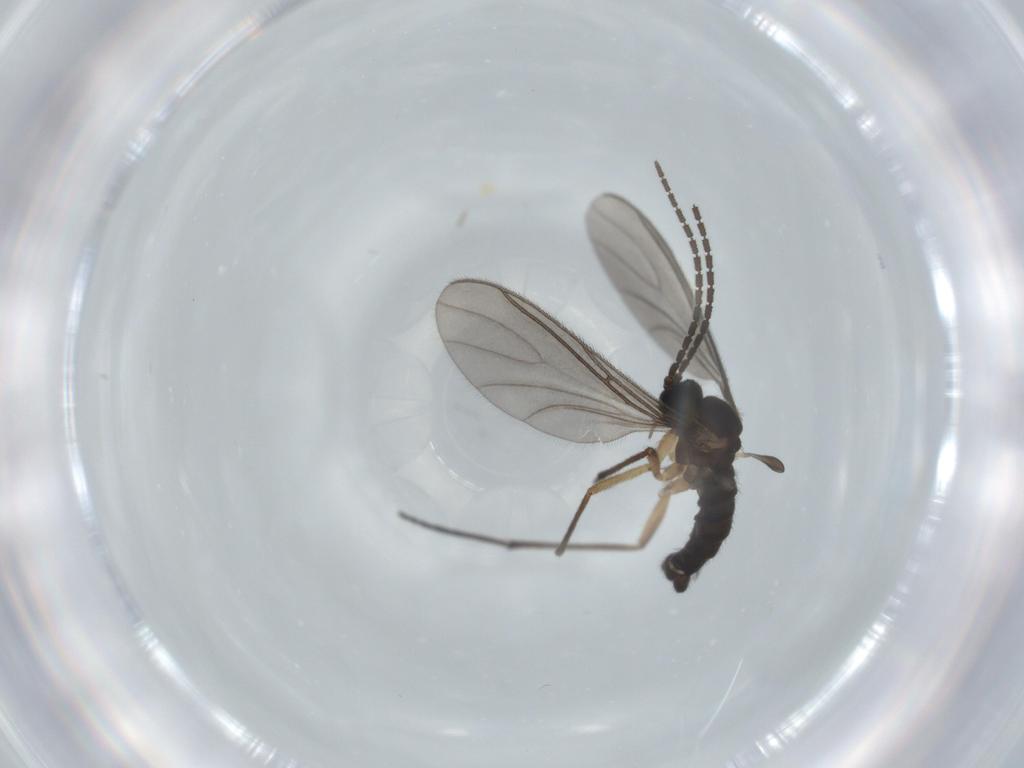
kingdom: Animalia
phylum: Arthropoda
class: Insecta
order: Diptera
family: Sciaridae
